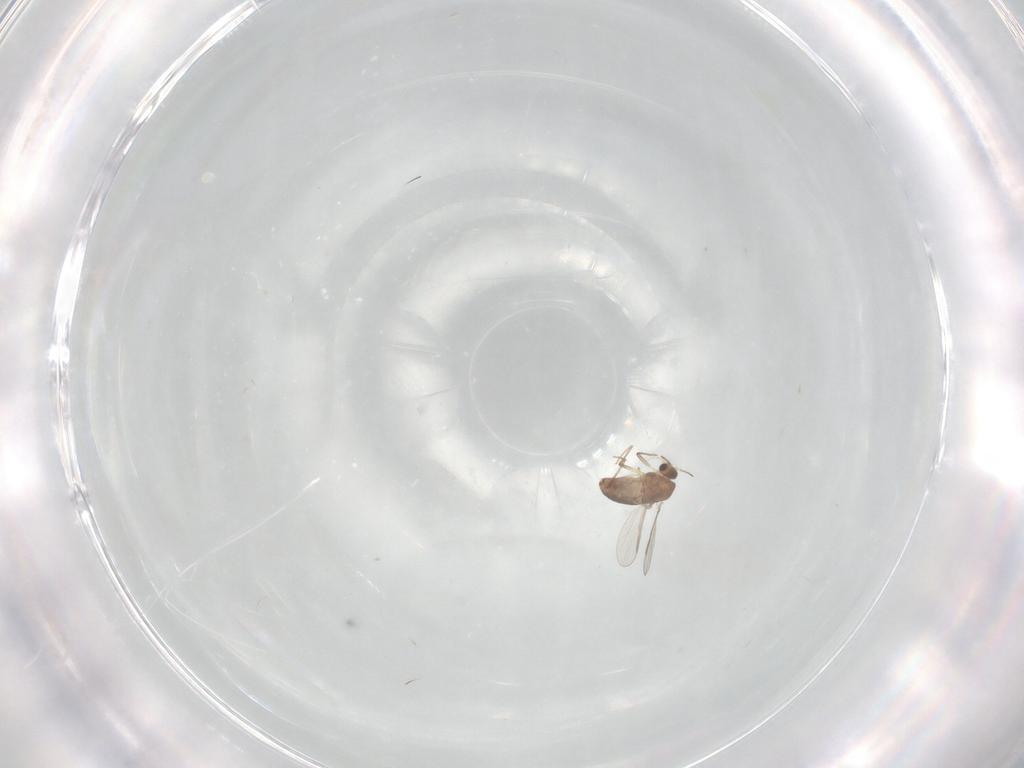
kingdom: Animalia
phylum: Arthropoda
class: Insecta
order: Diptera
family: Chironomidae
